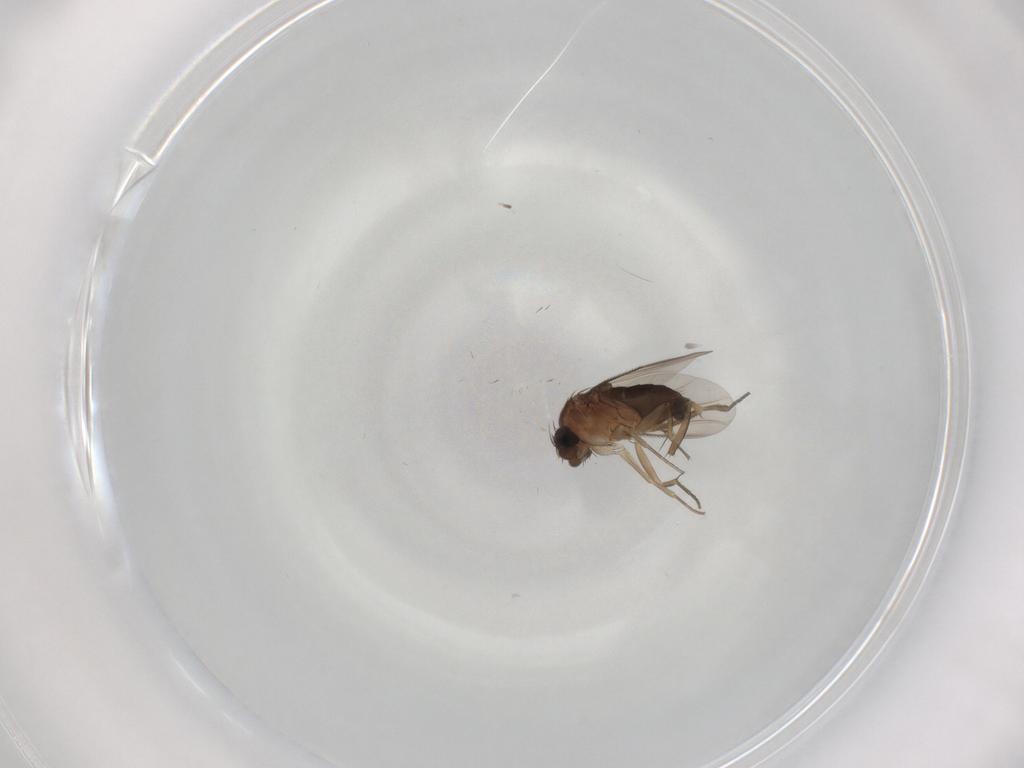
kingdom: Animalia
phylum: Arthropoda
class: Insecta
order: Diptera
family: Phoridae
